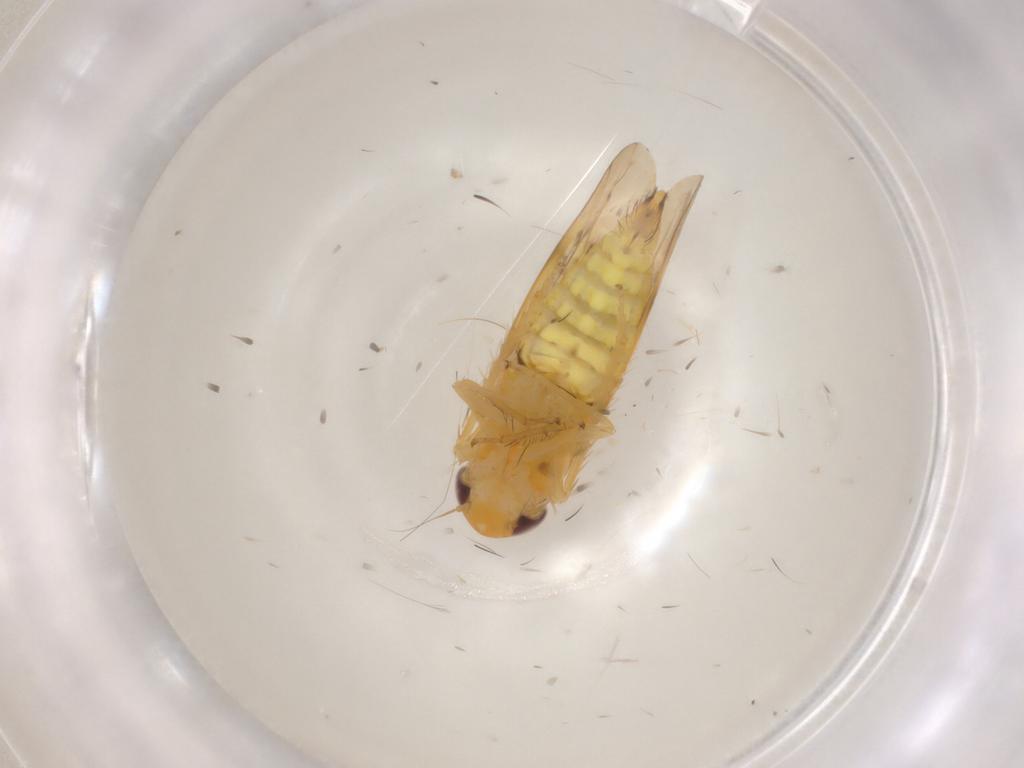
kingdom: Animalia
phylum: Arthropoda
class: Insecta
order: Hemiptera
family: Cicadellidae
